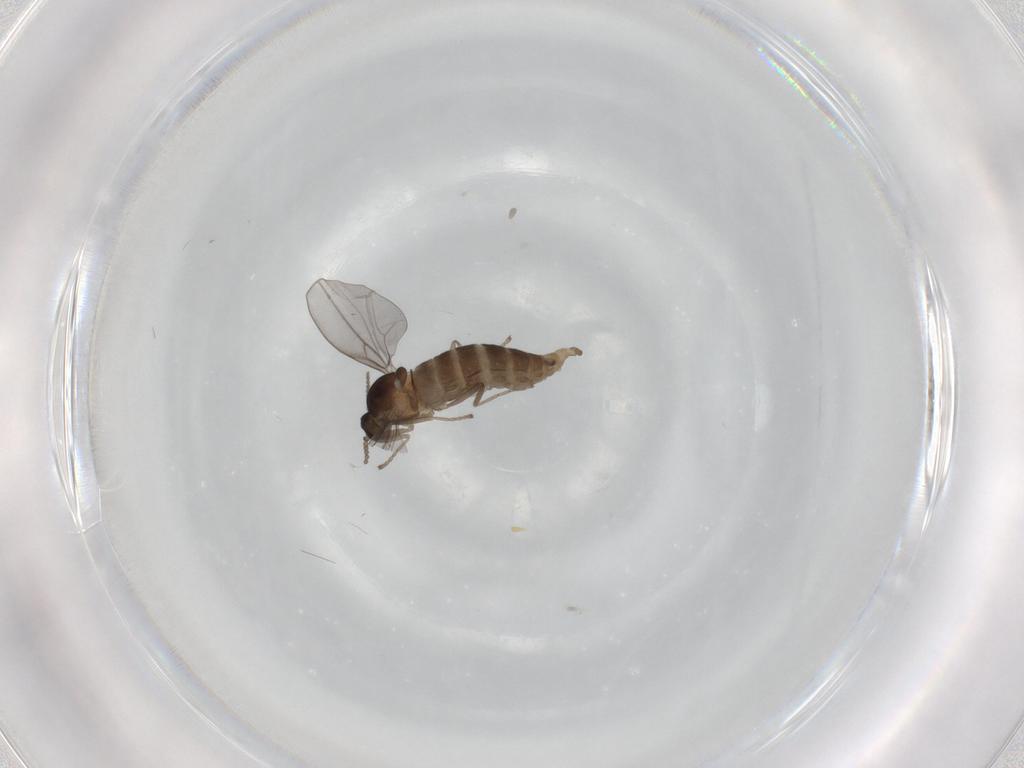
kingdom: Animalia
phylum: Arthropoda
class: Insecta
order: Diptera
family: Cecidomyiidae
